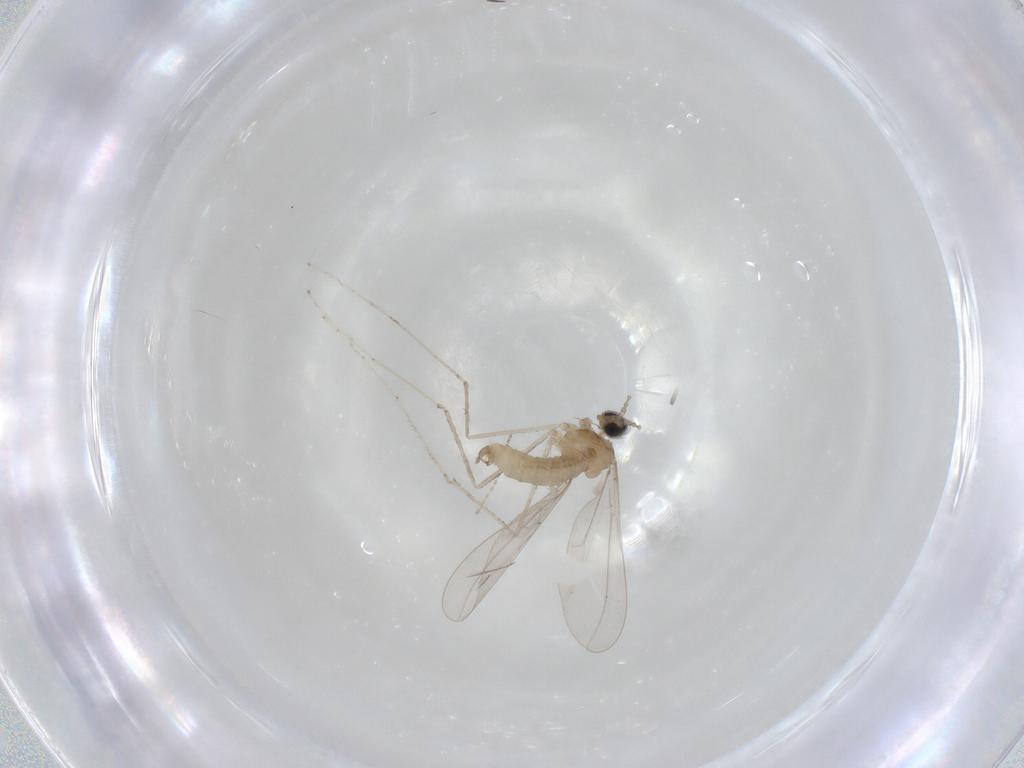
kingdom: Animalia
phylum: Arthropoda
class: Insecta
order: Diptera
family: Cecidomyiidae
